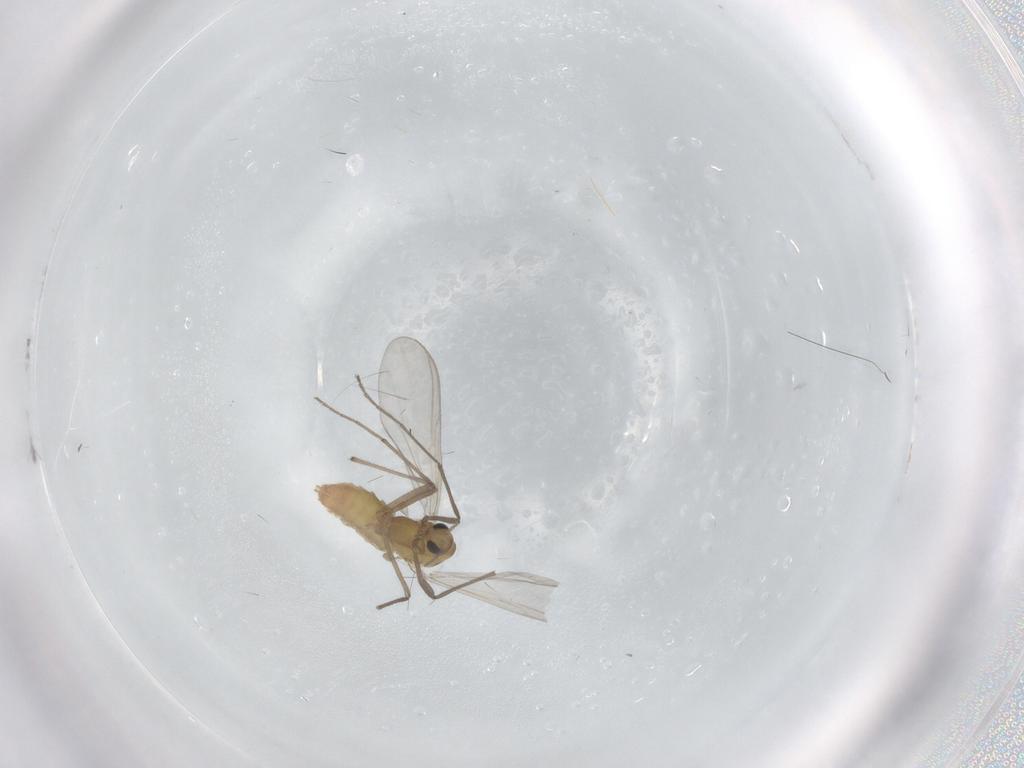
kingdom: Animalia
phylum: Arthropoda
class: Insecta
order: Diptera
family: Chironomidae
